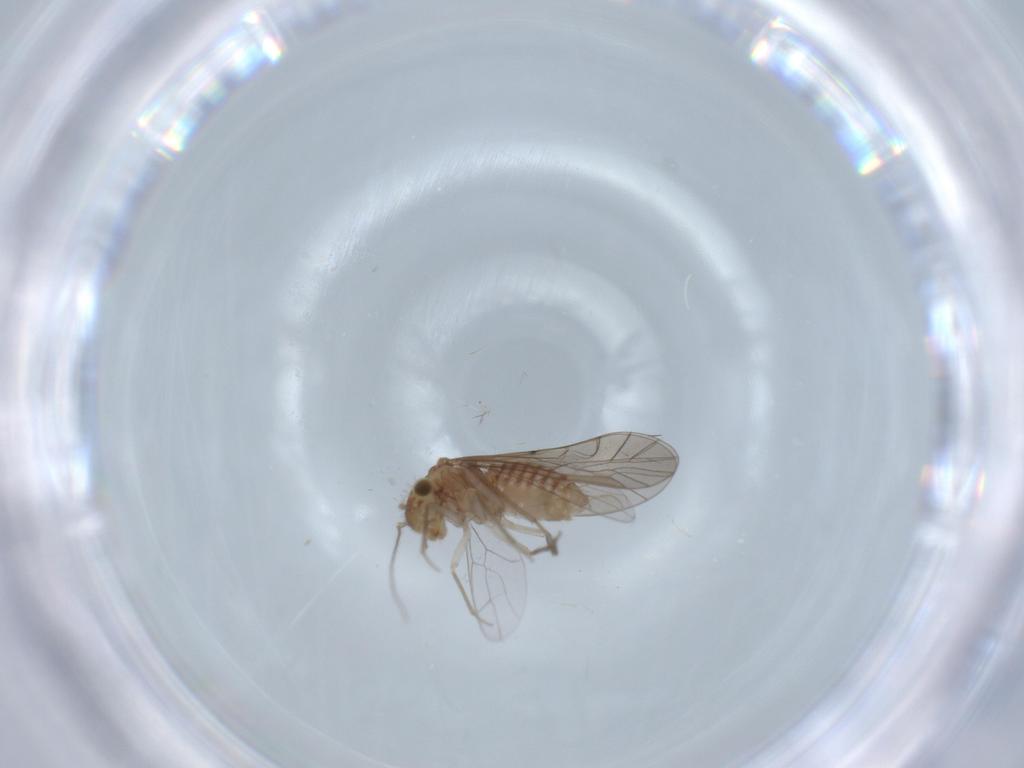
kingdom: Animalia
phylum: Arthropoda
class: Insecta
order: Psocodea
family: Lachesillidae
